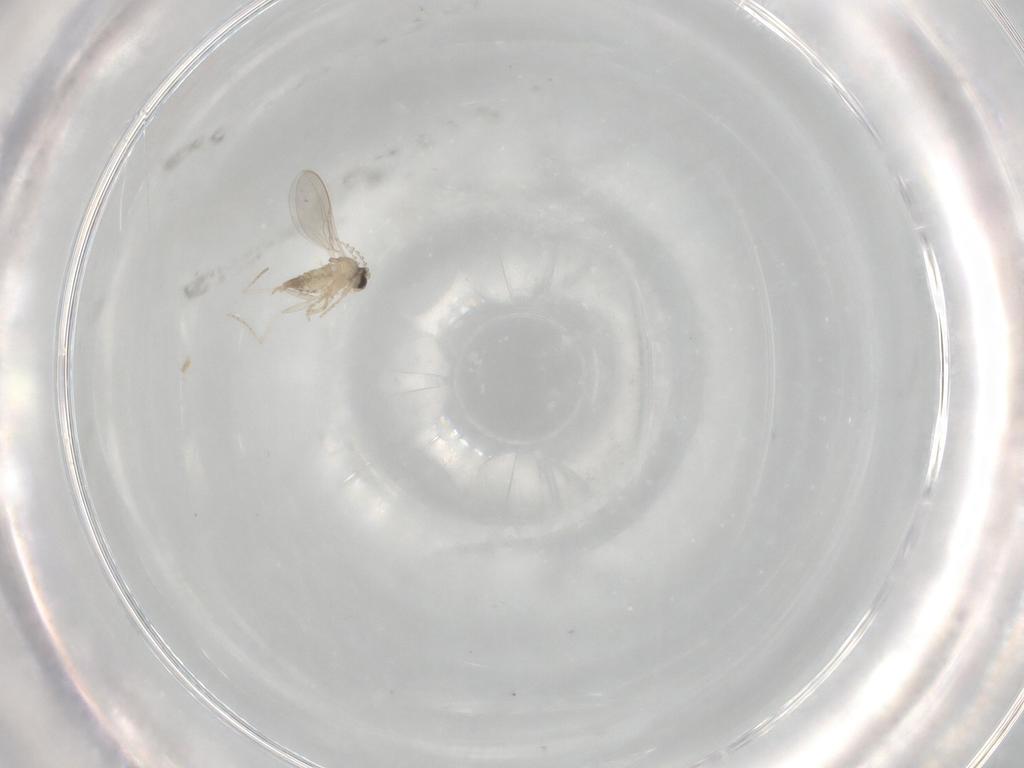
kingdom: Animalia
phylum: Arthropoda
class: Insecta
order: Diptera
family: Cecidomyiidae
